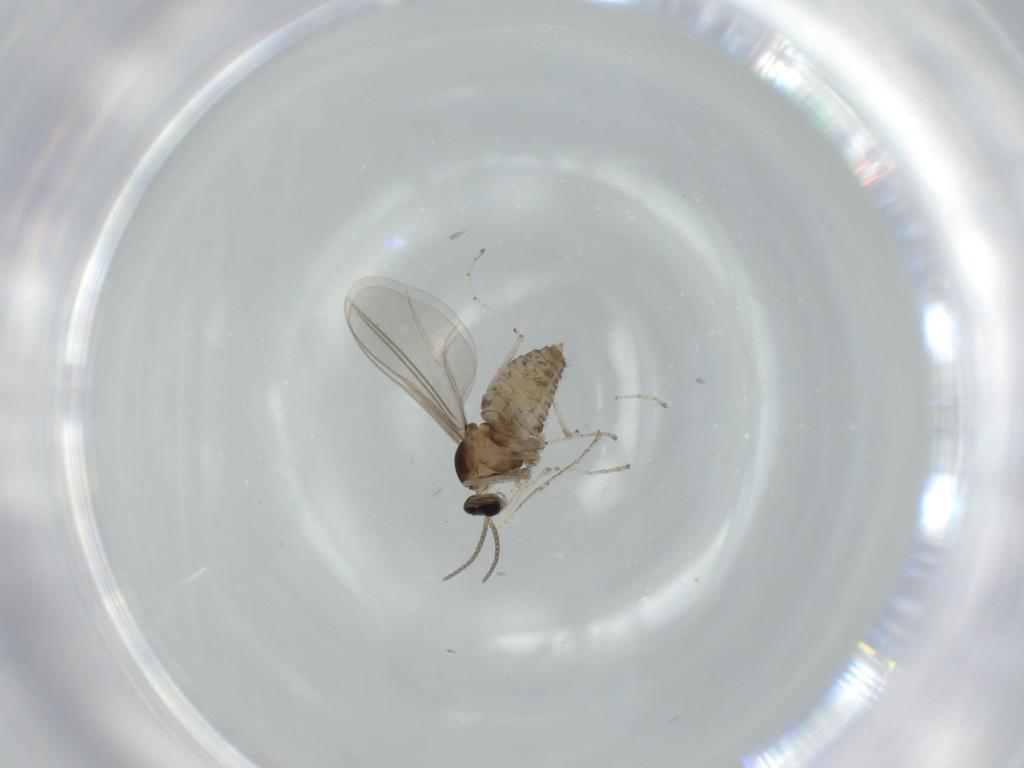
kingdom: Animalia
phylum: Arthropoda
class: Insecta
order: Diptera
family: Cecidomyiidae
